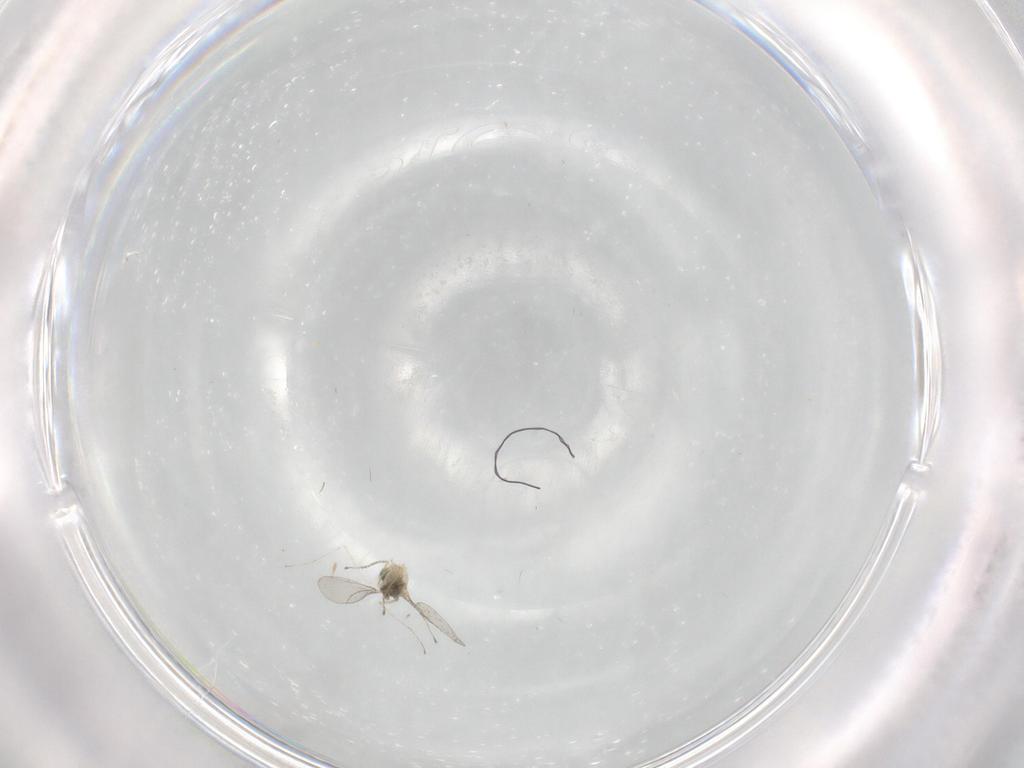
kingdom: Animalia
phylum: Arthropoda
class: Insecta
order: Diptera
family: Cecidomyiidae
